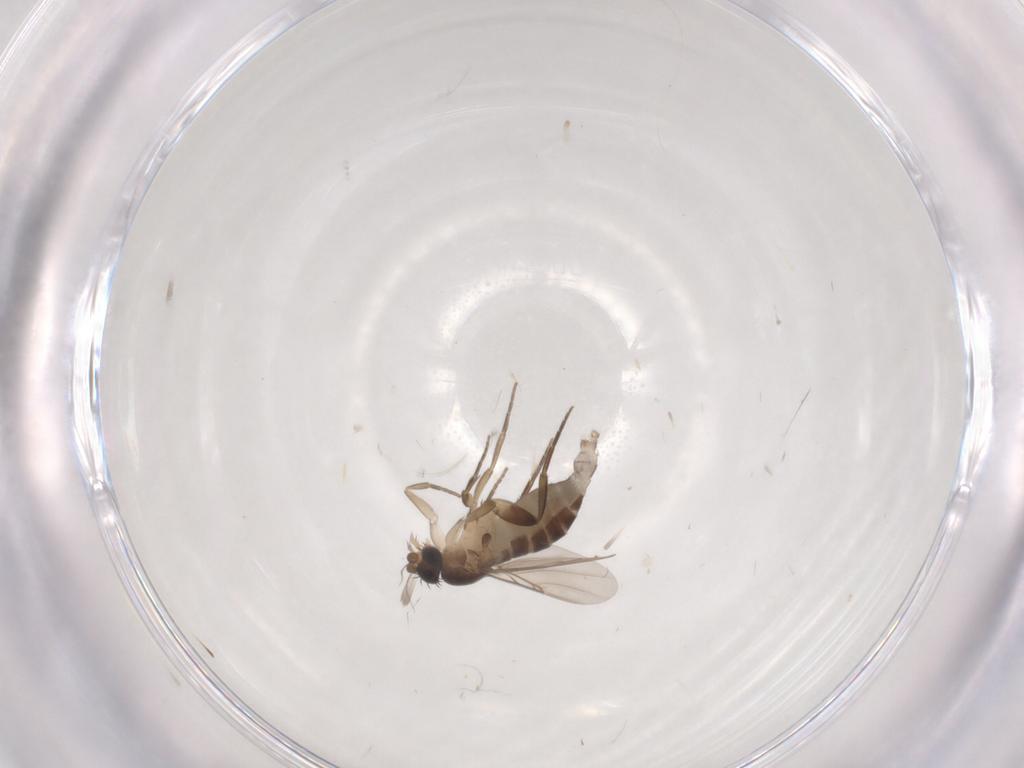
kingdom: Animalia
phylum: Arthropoda
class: Insecta
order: Diptera
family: Phoridae
